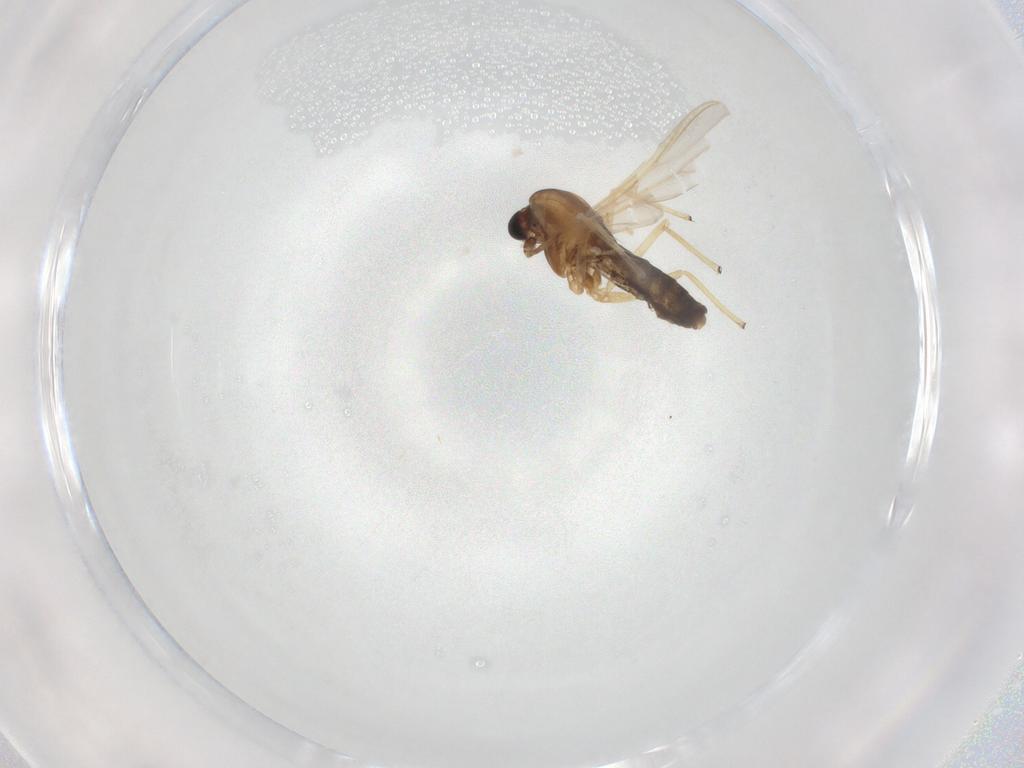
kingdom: Animalia
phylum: Arthropoda
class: Insecta
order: Diptera
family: Chironomidae
